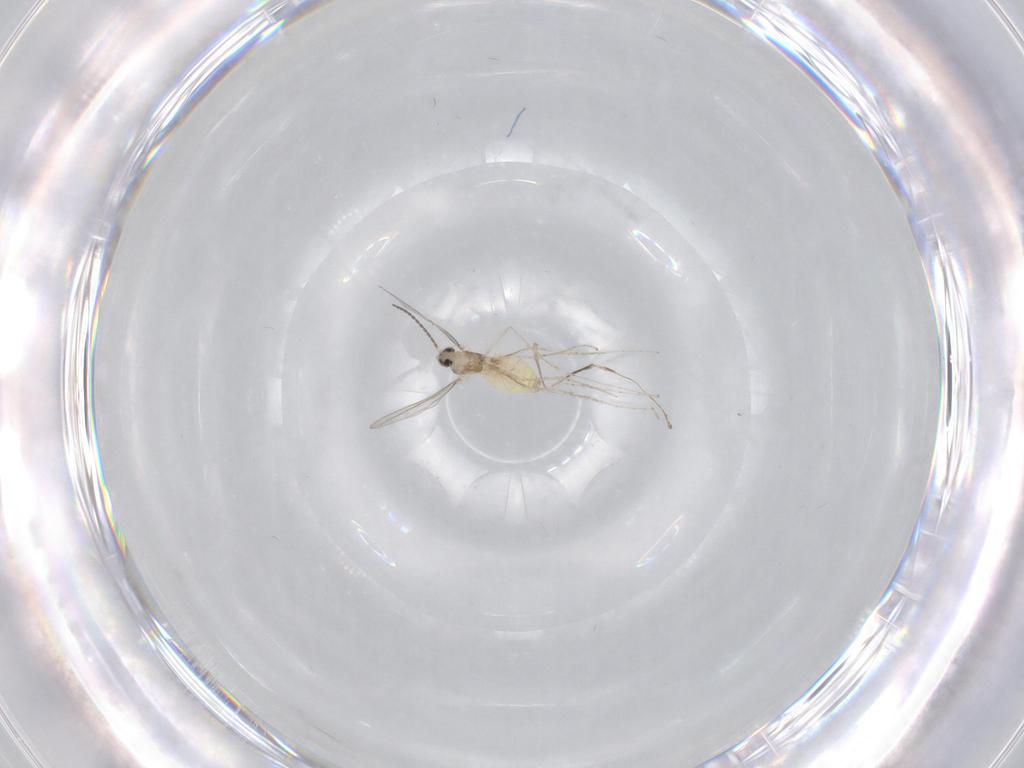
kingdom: Animalia
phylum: Arthropoda
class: Insecta
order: Diptera
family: Cecidomyiidae
